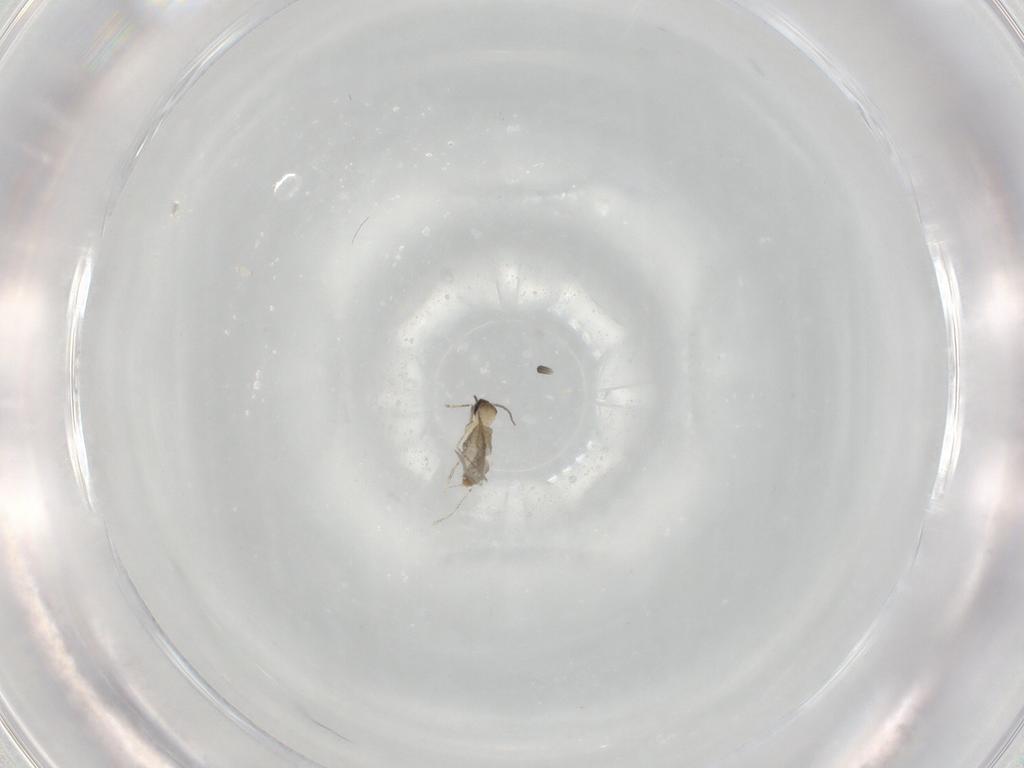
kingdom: Animalia
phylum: Arthropoda
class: Insecta
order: Diptera
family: Cecidomyiidae
